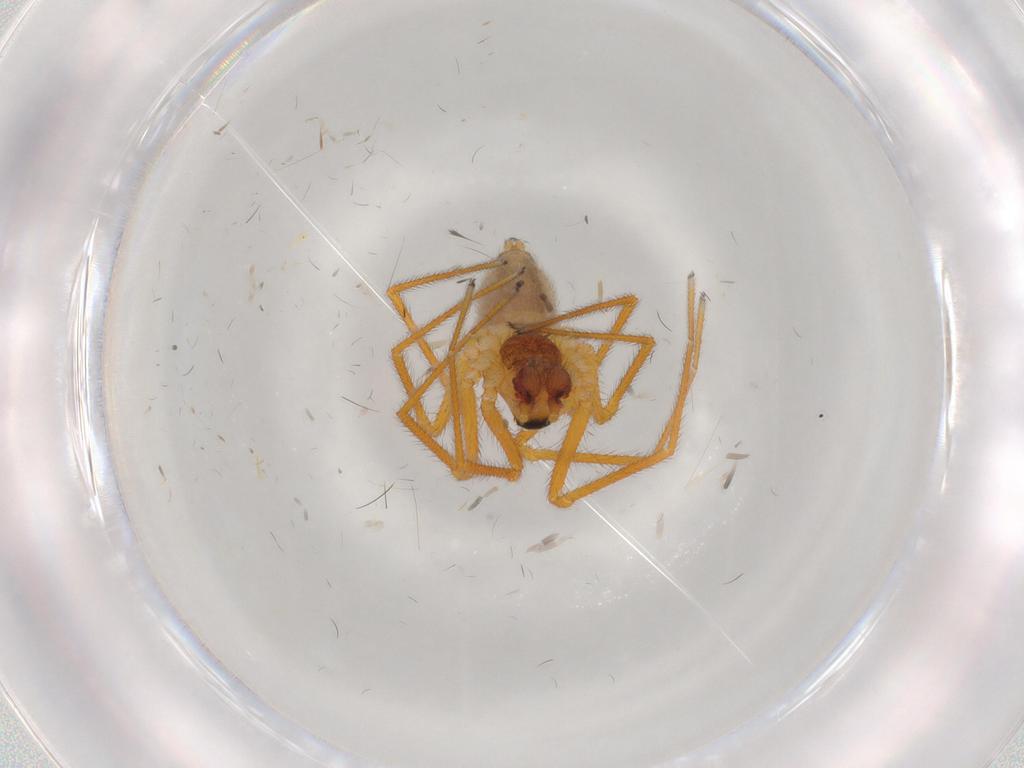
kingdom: Animalia
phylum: Arthropoda
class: Arachnida
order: Araneae
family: Linyphiidae
